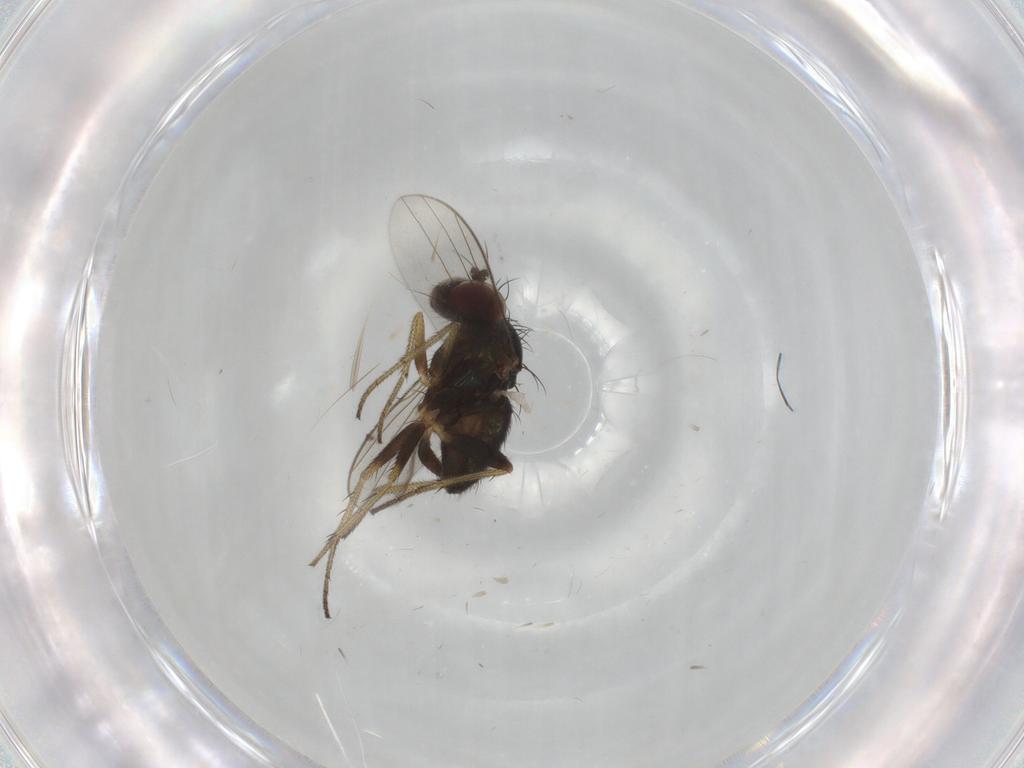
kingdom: Animalia
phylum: Arthropoda
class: Insecta
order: Diptera
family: Dolichopodidae
